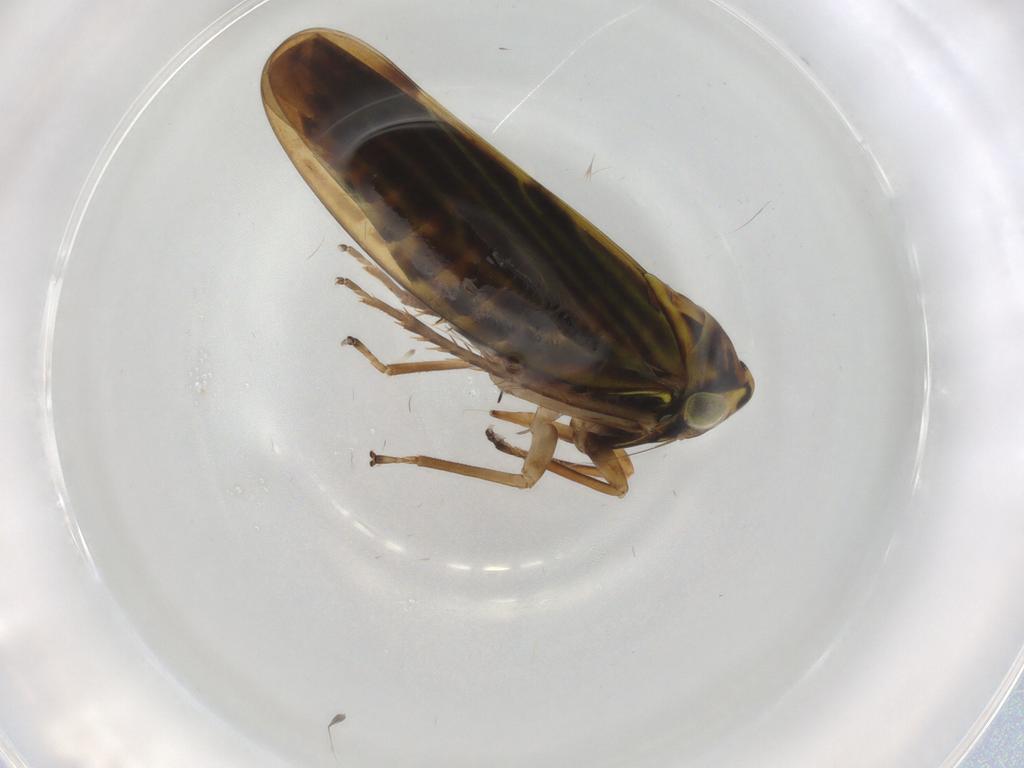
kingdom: Animalia
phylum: Arthropoda
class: Insecta
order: Hemiptera
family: Cicadellidae
